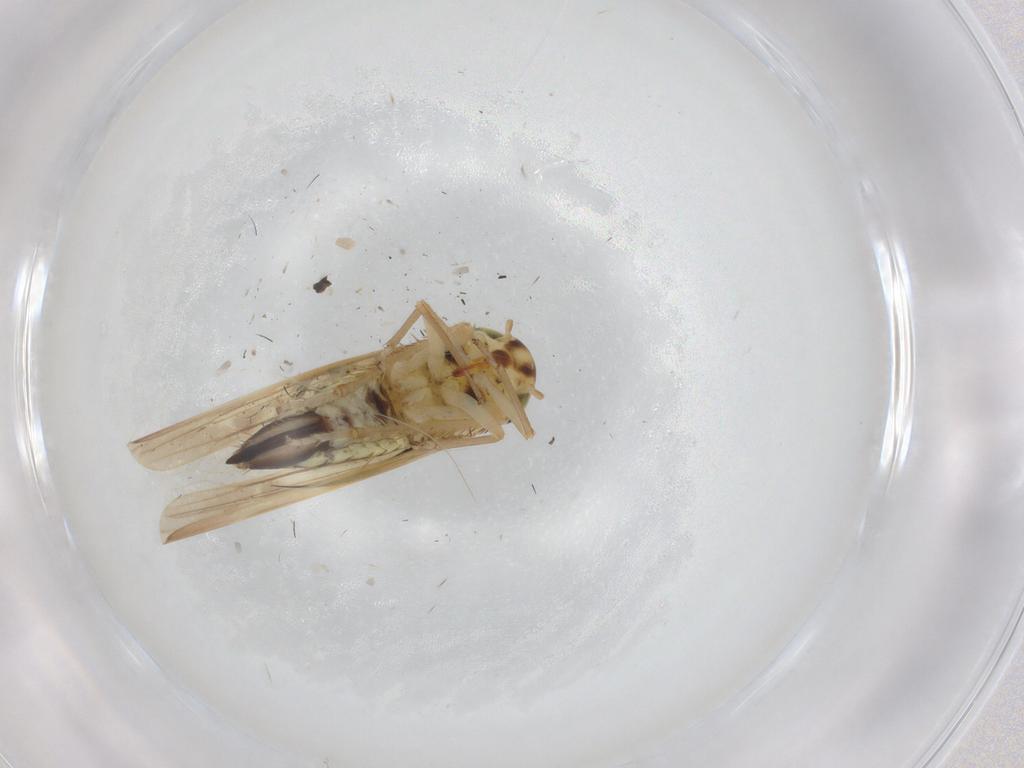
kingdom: Animalia
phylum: Arthropoda
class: Insecta
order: Hemiptera
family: Cicadellidae
